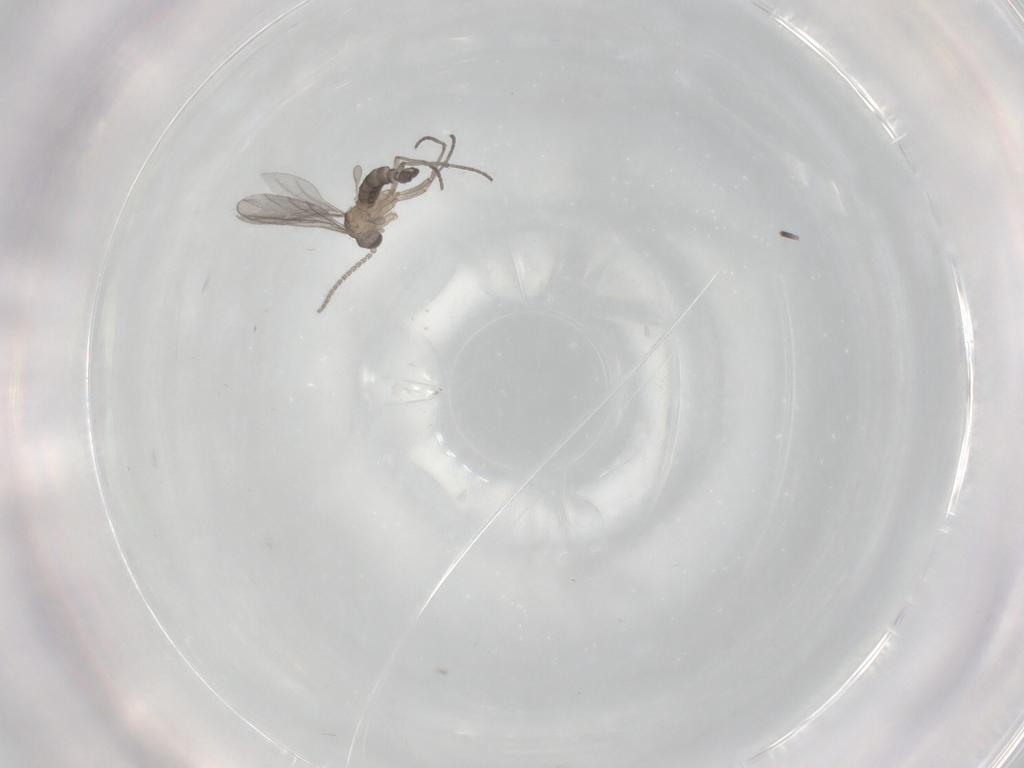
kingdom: Animalia
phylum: Arthropoda
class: Insecta
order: Diptera
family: Sciaridae
